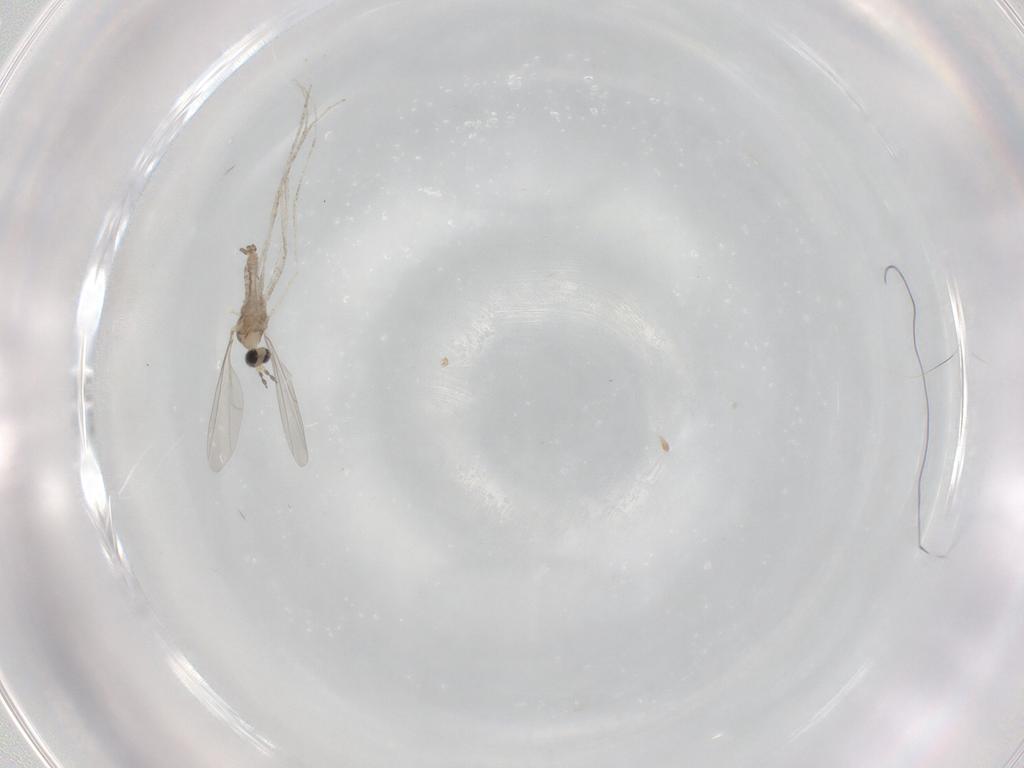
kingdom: Animalia
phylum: Arthropoda
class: Insecta
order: Diptera
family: Cecidomyiidae
